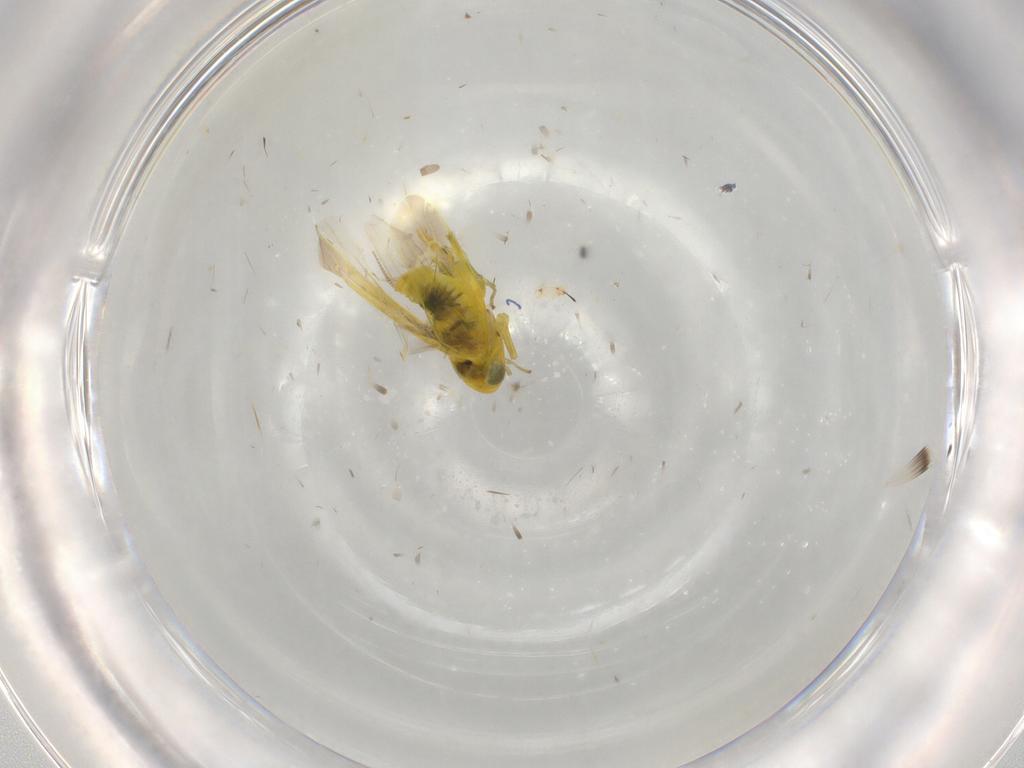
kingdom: Animalia
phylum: Arthropoda
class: Insecta
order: Hemiptera
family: Cicadellidae
